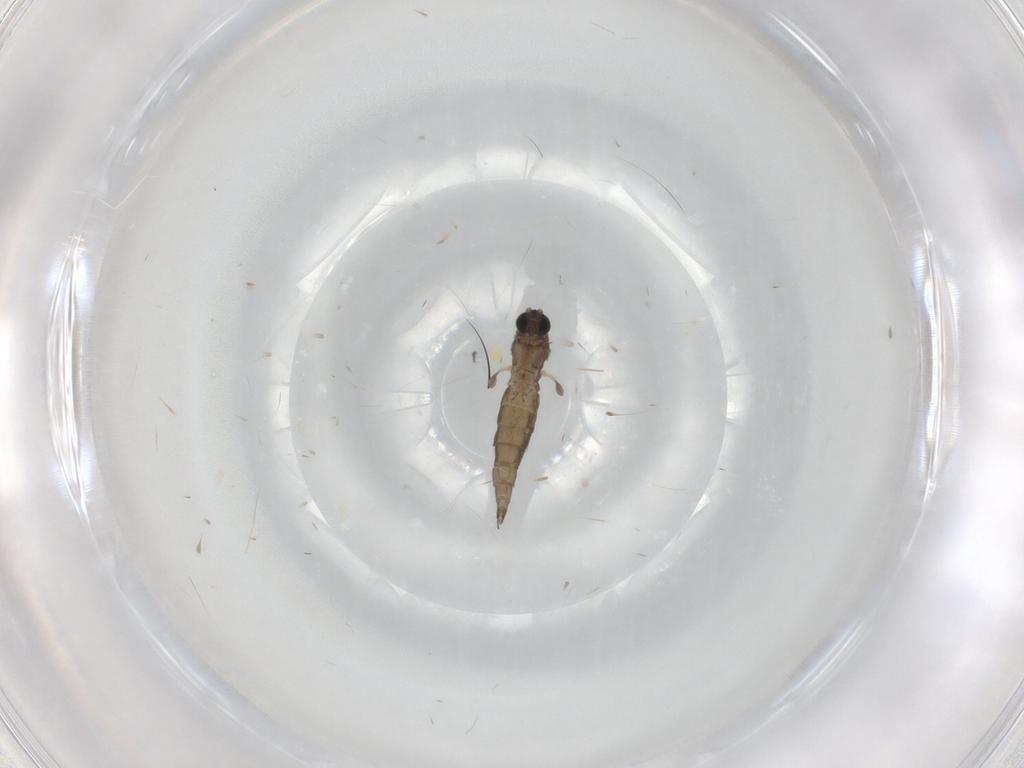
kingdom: Animalia
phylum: Arthropoda
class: Insecta
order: Diptera
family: Sciaridae
